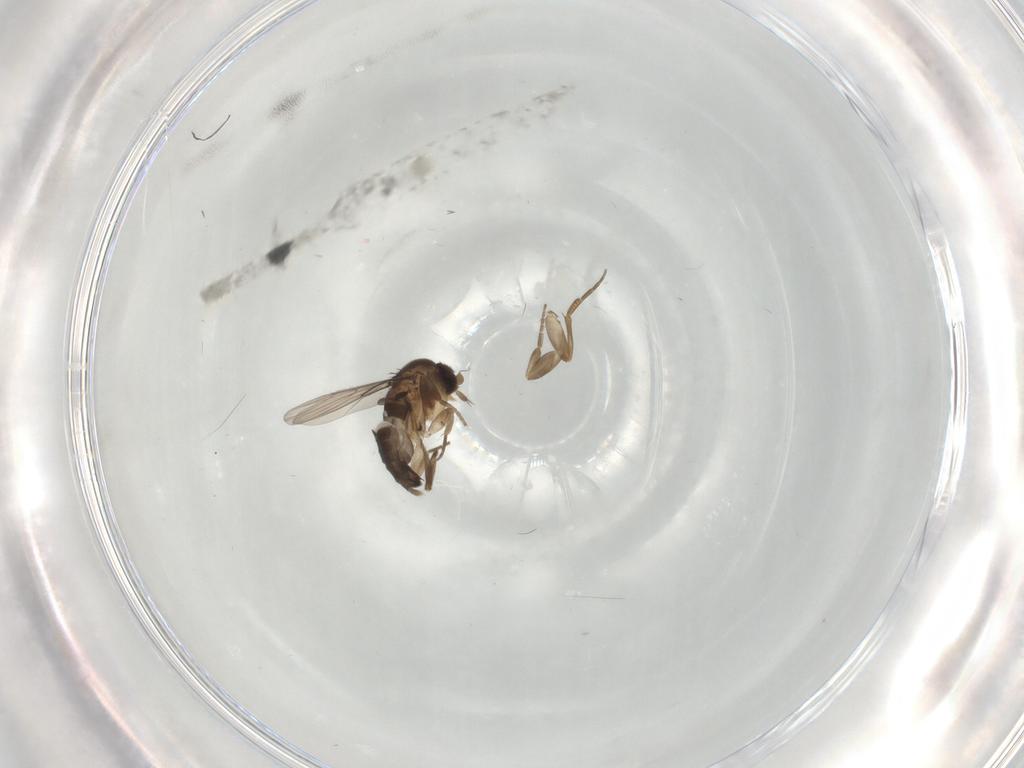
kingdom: Animalia
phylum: Arthropoda
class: Insecta
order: Diptera
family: Phoridae
